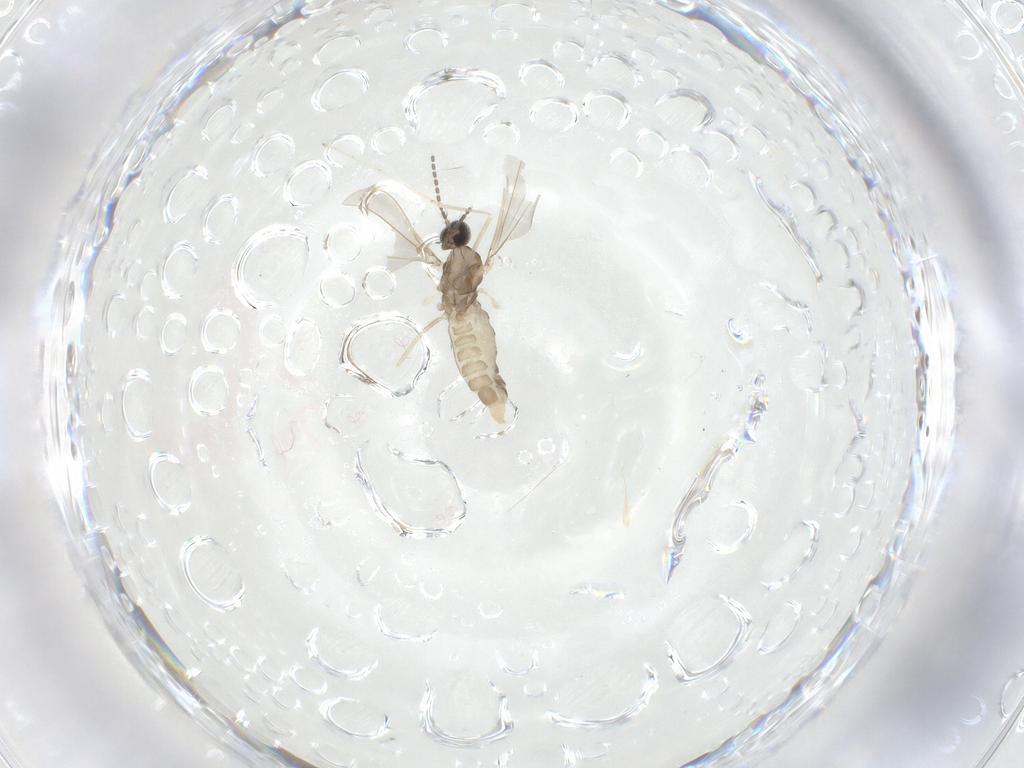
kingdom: Animalia
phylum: Arthropoda
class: Insecta
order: Diptera
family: Cecidomyiidae
